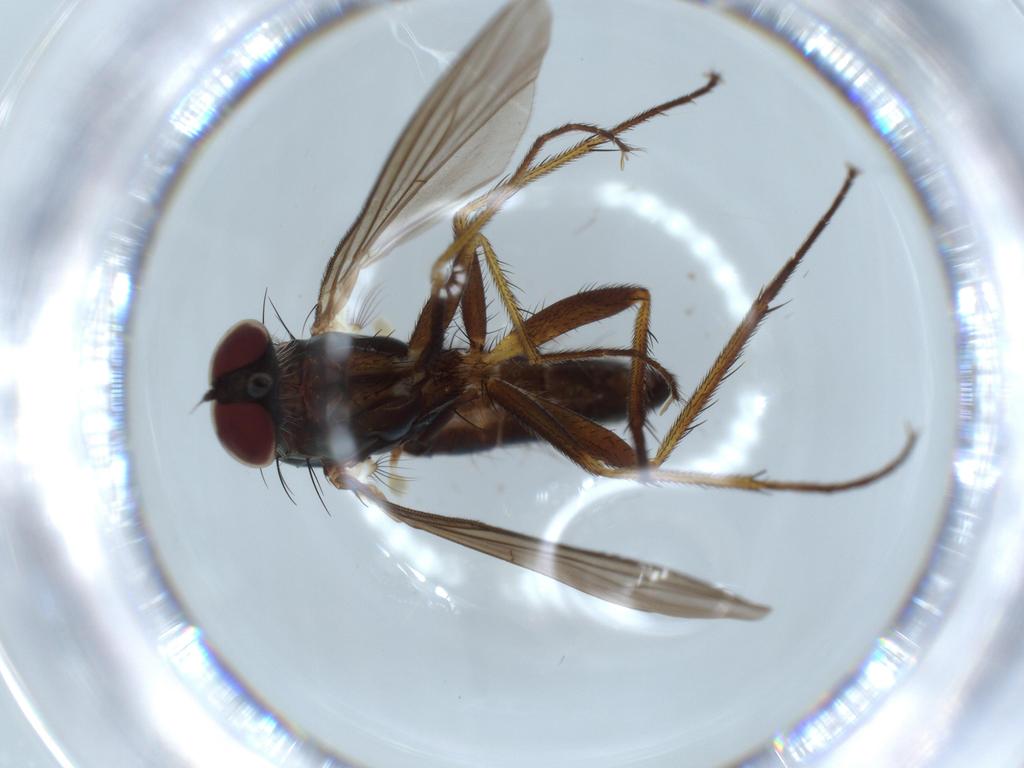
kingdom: Animalia
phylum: Arthropoda
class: Insecta
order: Diptera
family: Dolichopodidae
